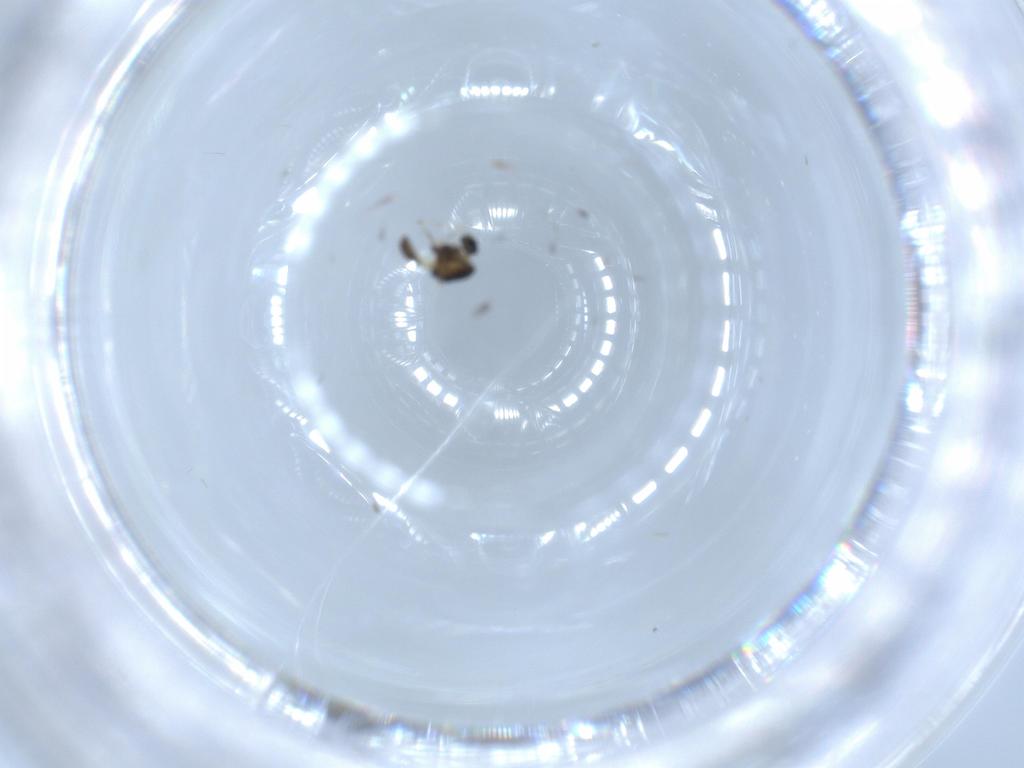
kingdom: Animalia
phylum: Arthropoda
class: Insecta
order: Diptera
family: Chironomidae
